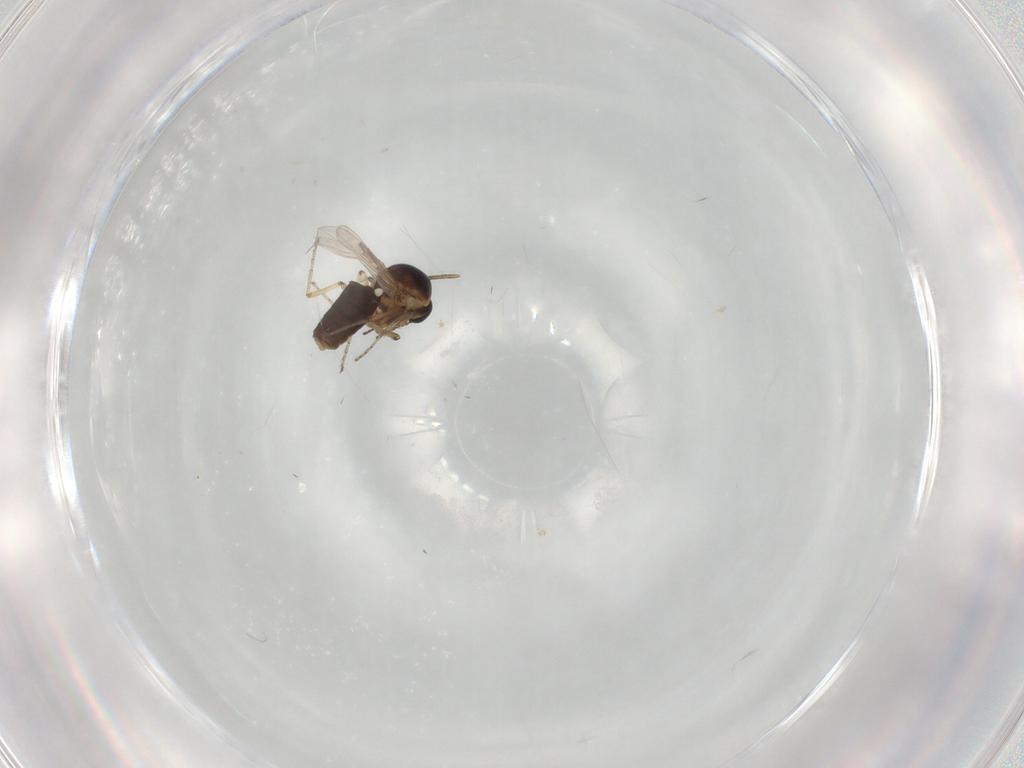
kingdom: Animalia
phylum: Arthropoda
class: Insecta
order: Diptera
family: Ceratopogonidae
